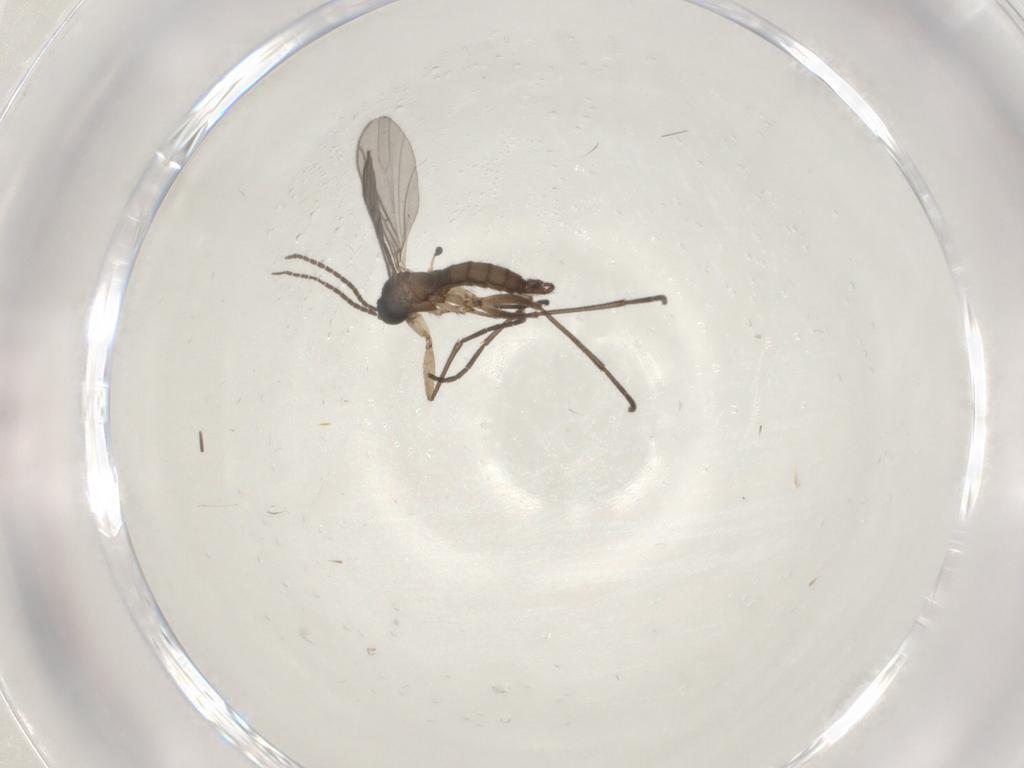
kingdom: Animalia
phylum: Arthropoda
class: Insecta
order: Diptera
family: Sciaridae
